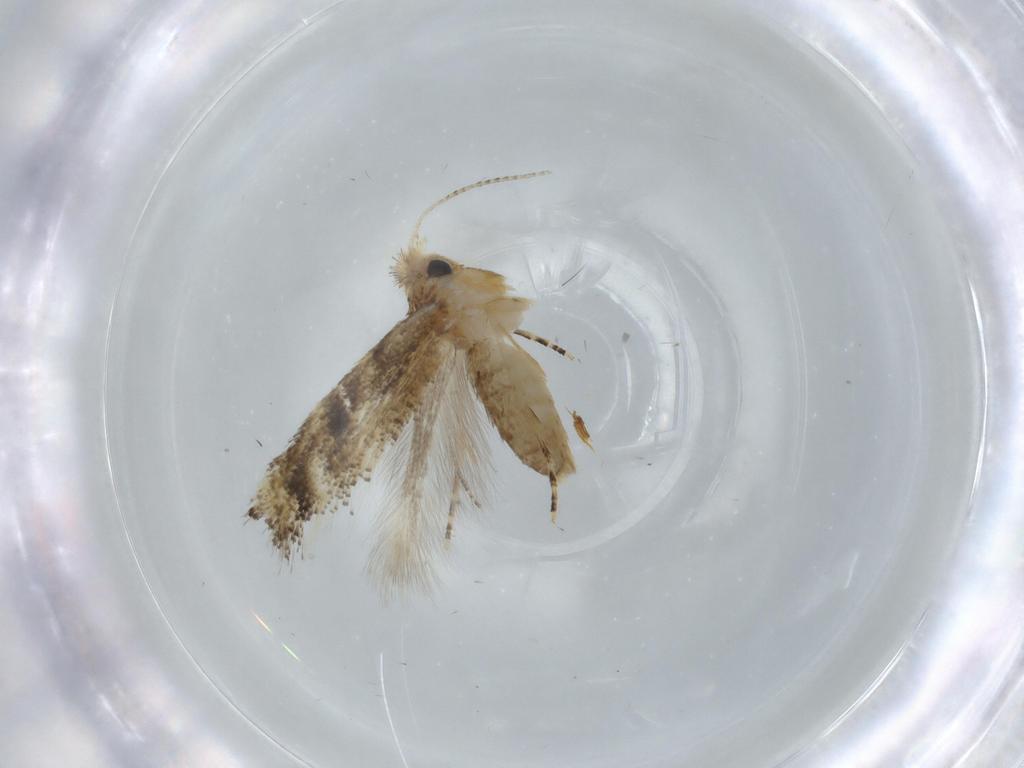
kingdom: Animalia
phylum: Arthropoda
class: Insecta
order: Lepidoptera
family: Bucculatricidae
